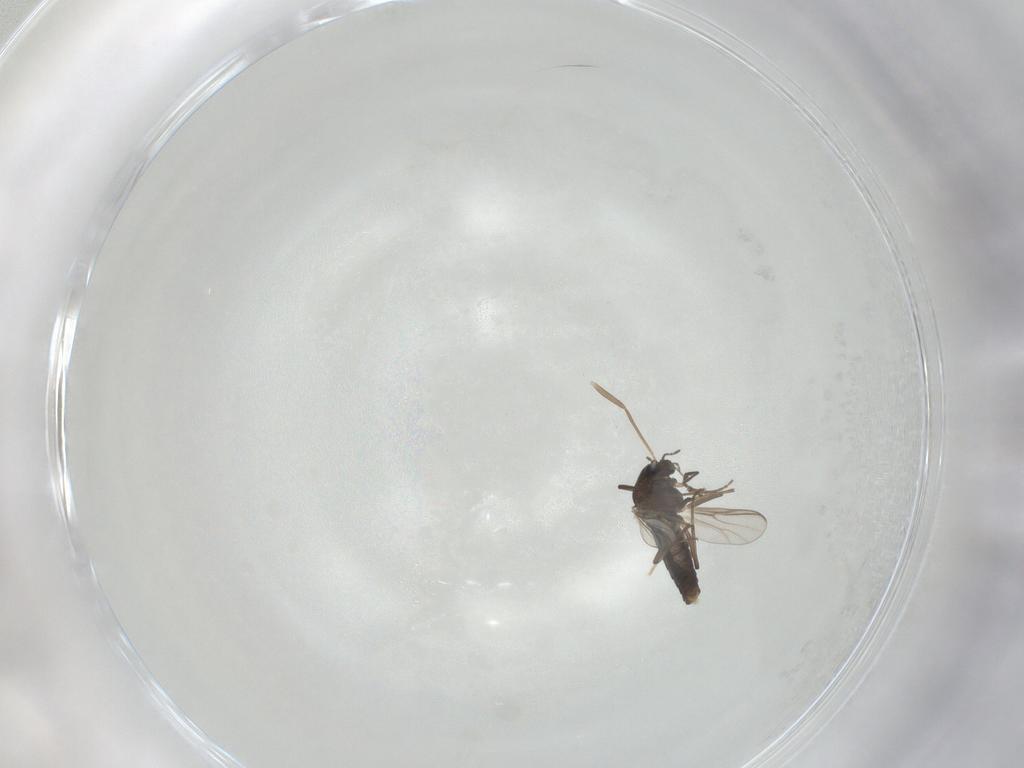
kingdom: Animalia
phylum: Arthropoda
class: Insecta
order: Diptera
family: Chironomidae
